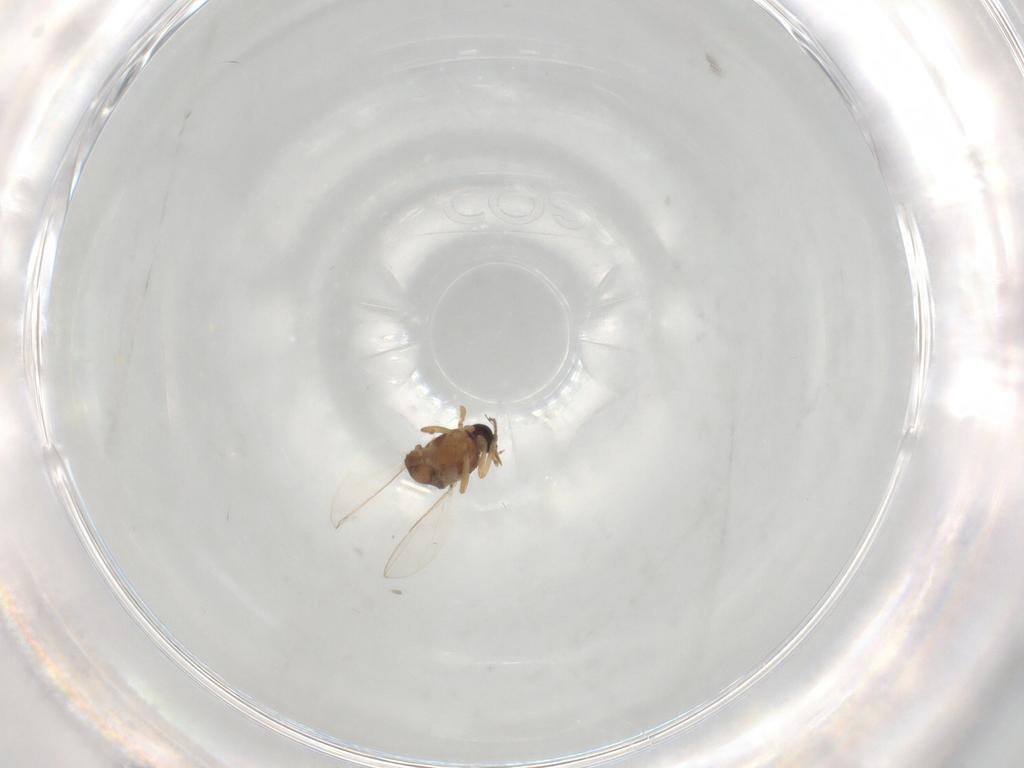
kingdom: Animalia
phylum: Arthropoda
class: Insecta
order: Diptera
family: Ceratopogonidae
